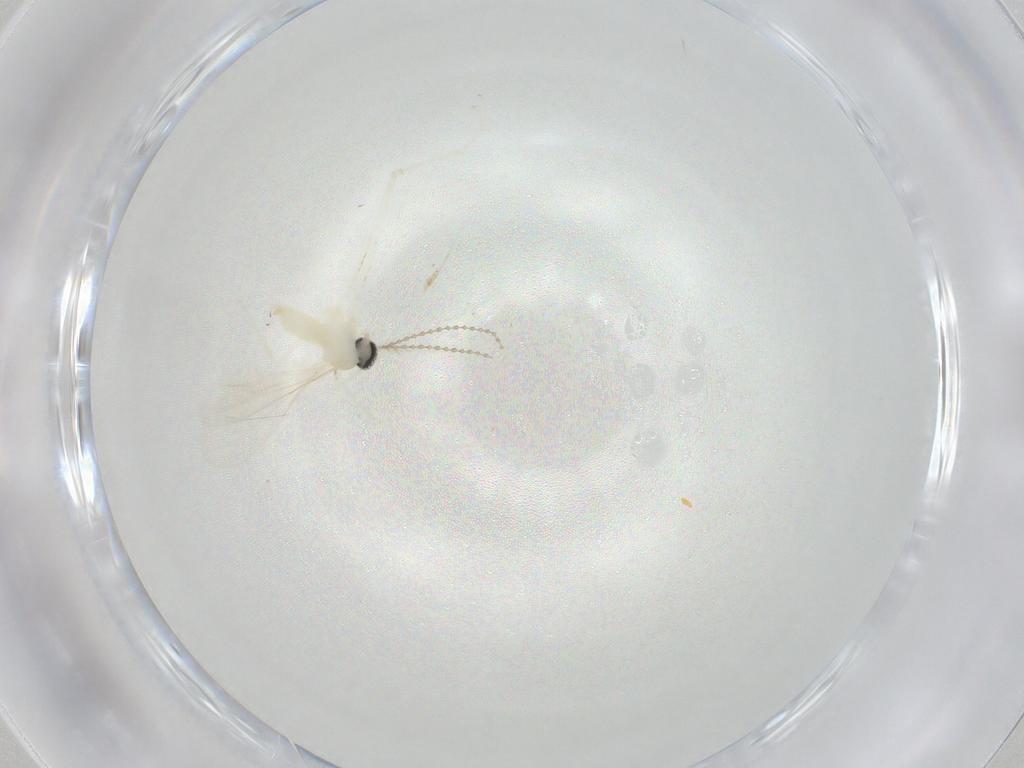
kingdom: Animalia
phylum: Arthropoda
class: Insecta
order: Diptera
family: Cecidomyiidae
